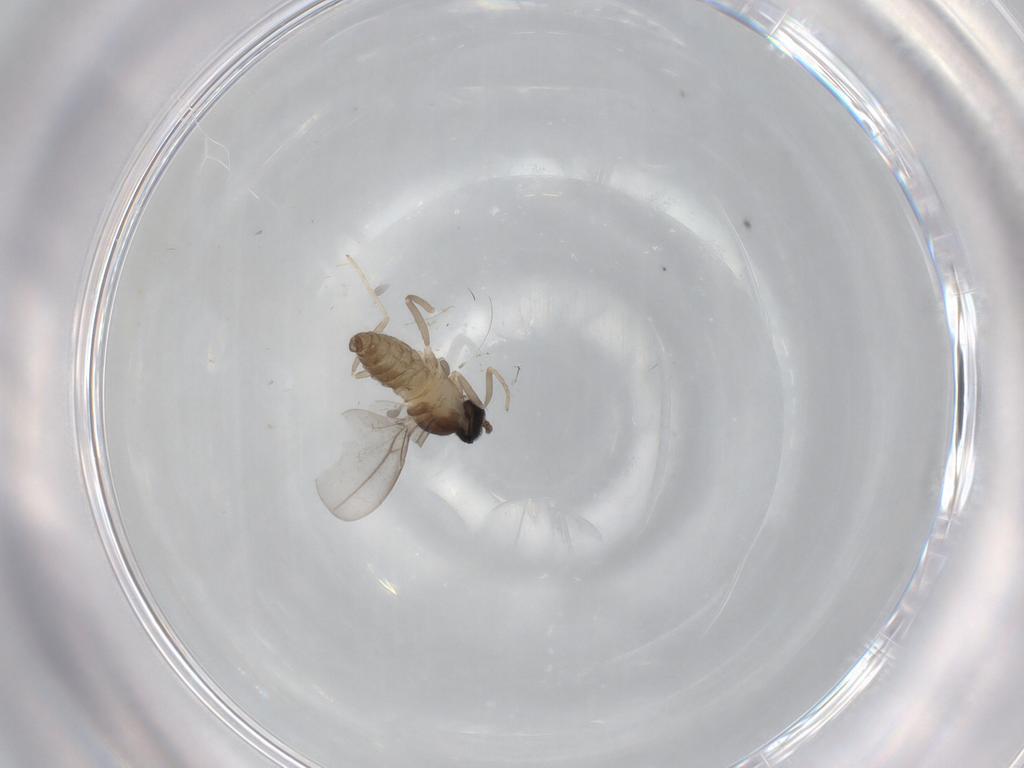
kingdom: Animalia
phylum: Arthropoda
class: Insecta
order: Diptera
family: Cecidomyiidae
